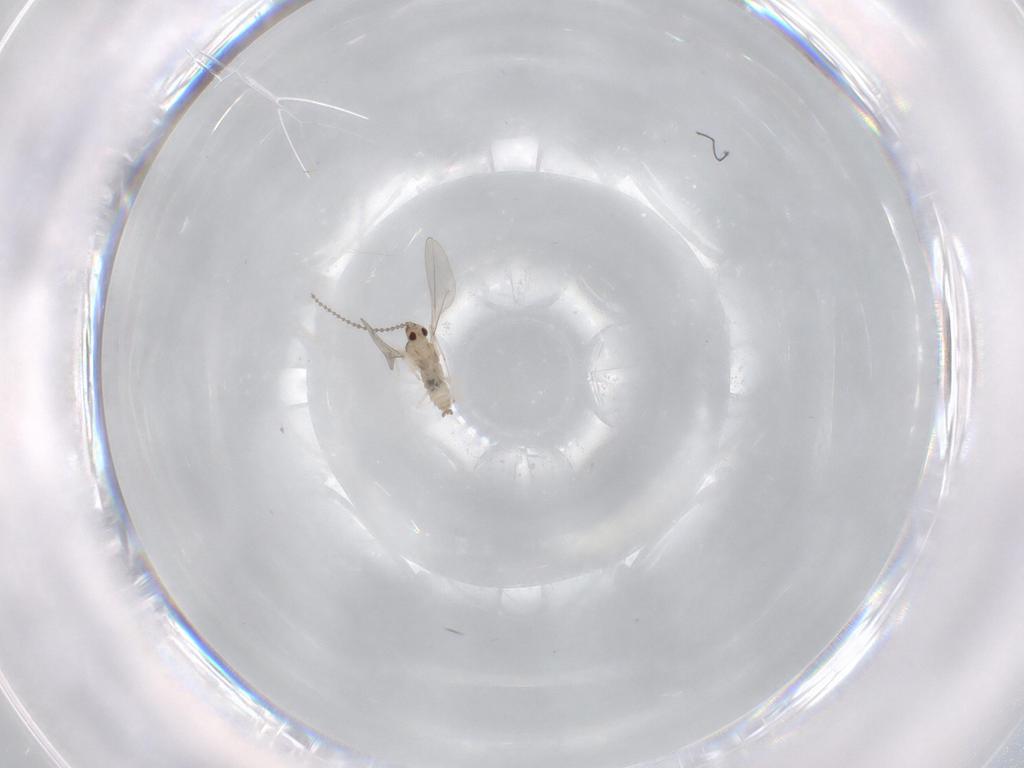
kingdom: Animalia
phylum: Arthropoda
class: Insecta
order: Diptera
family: Cecidomyiidae
